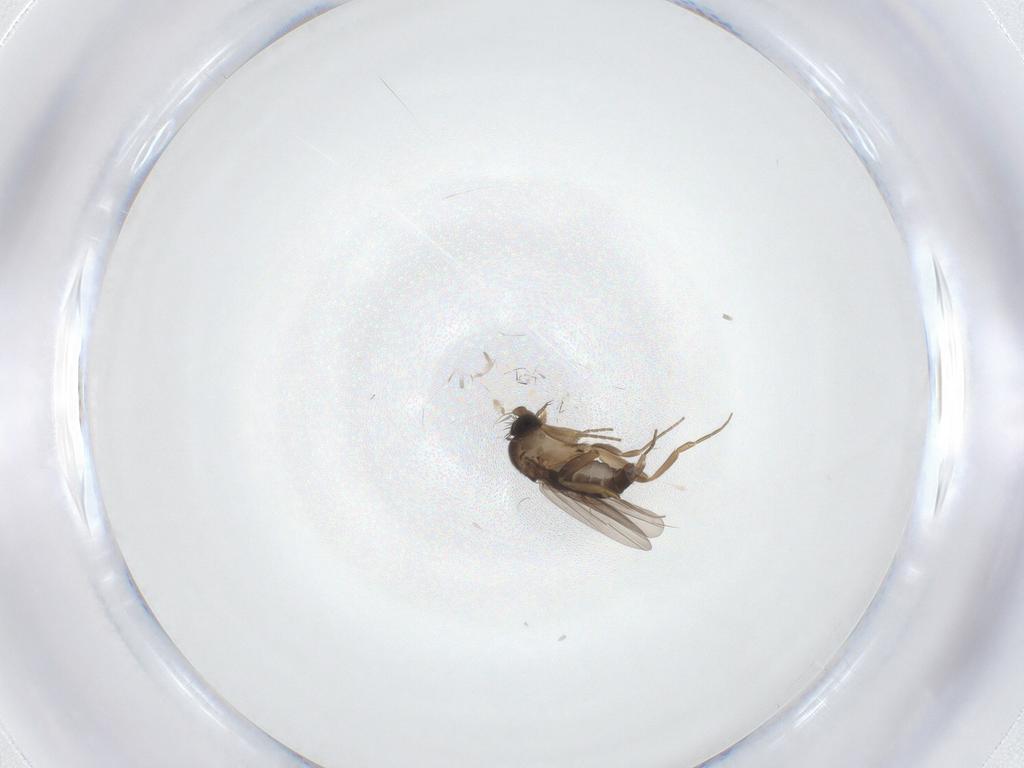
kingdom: Animalia
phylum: Arthropoda
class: Insecta
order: Diptera
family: Phoridae
